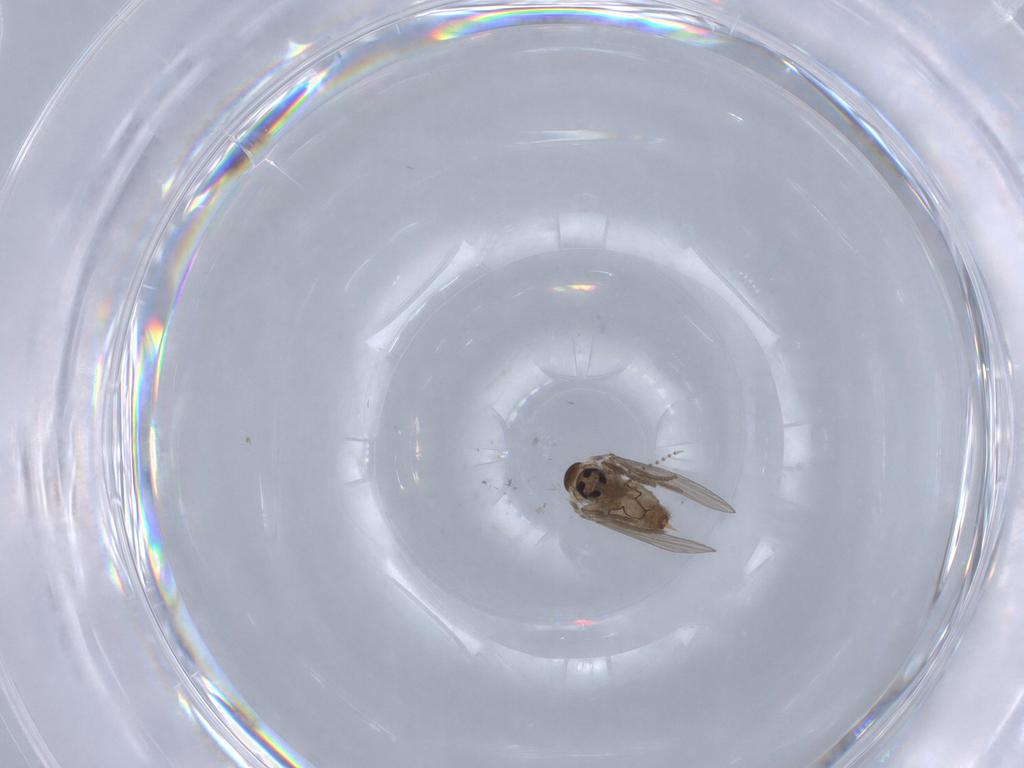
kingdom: Animalia
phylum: Arthropoda
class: Insecta
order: Diptera
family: Psychodidae
